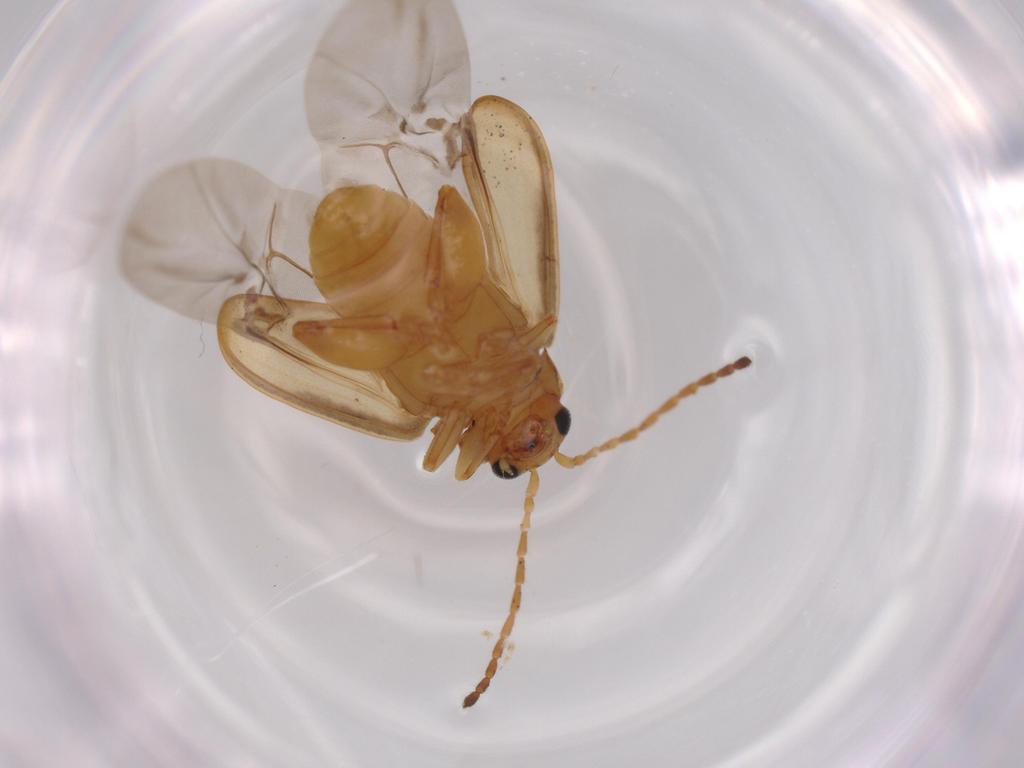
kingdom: Animalia
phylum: Arthropoda
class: Insecta
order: Coleoptera
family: Chrysomelidae
